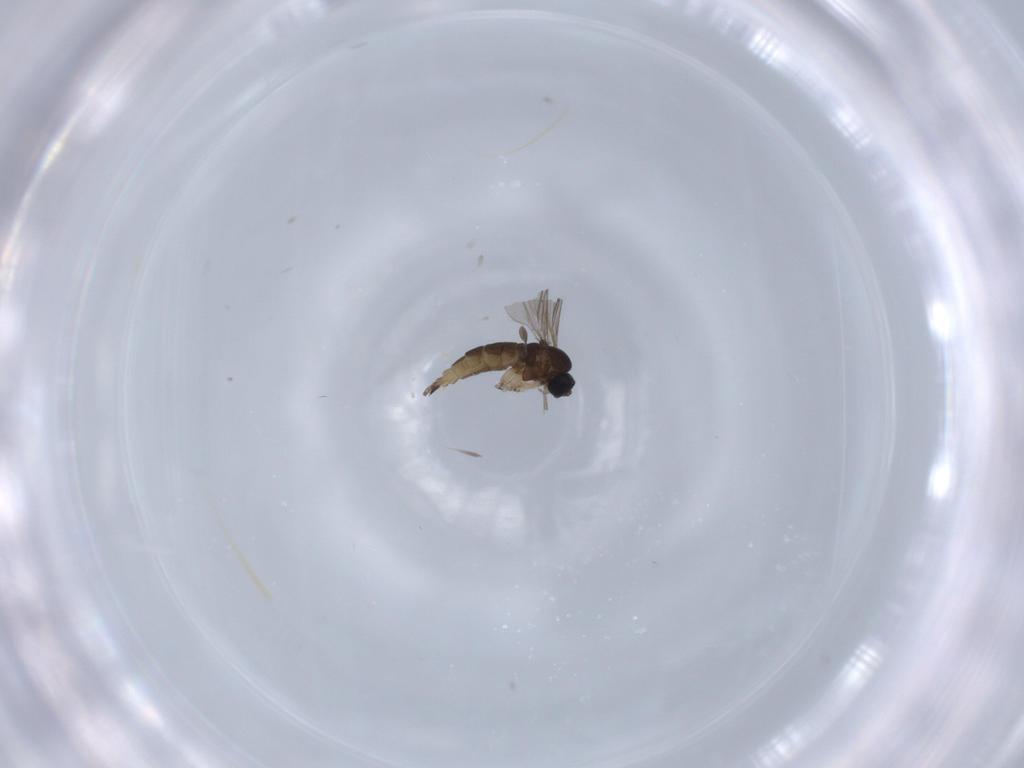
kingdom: Animalia
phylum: Arthropoda
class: Insecta
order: Diptera
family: Sciaridae
